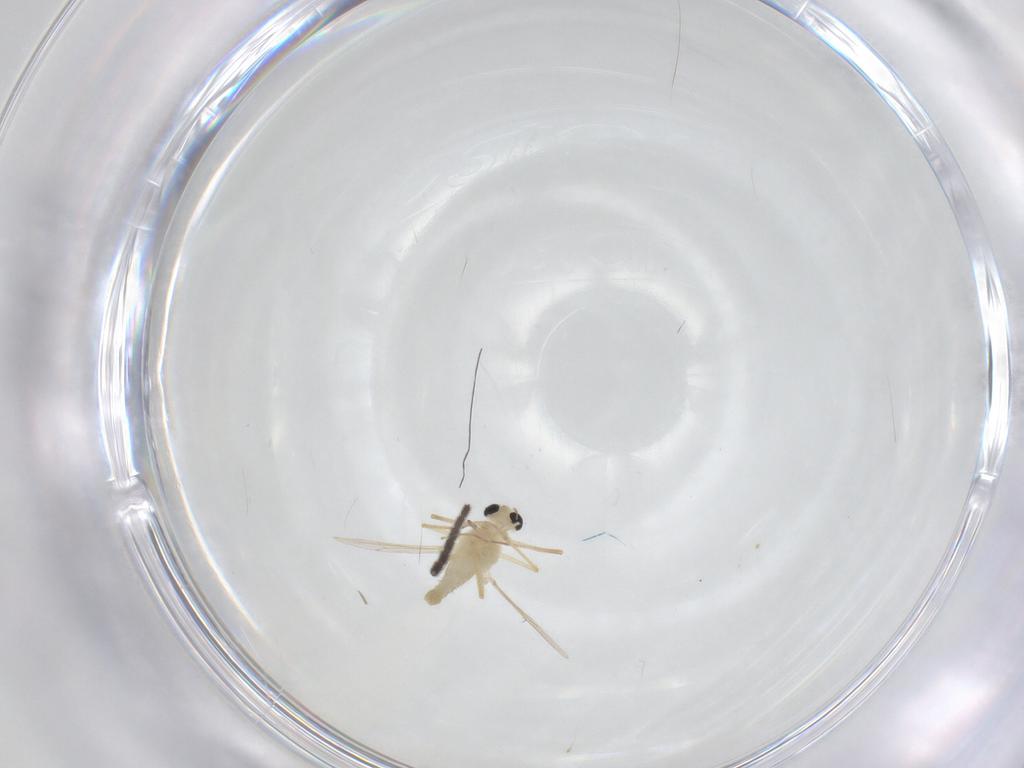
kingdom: Animalia
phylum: Arthropoda
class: Insecta
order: Diptera
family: Chironomidae
